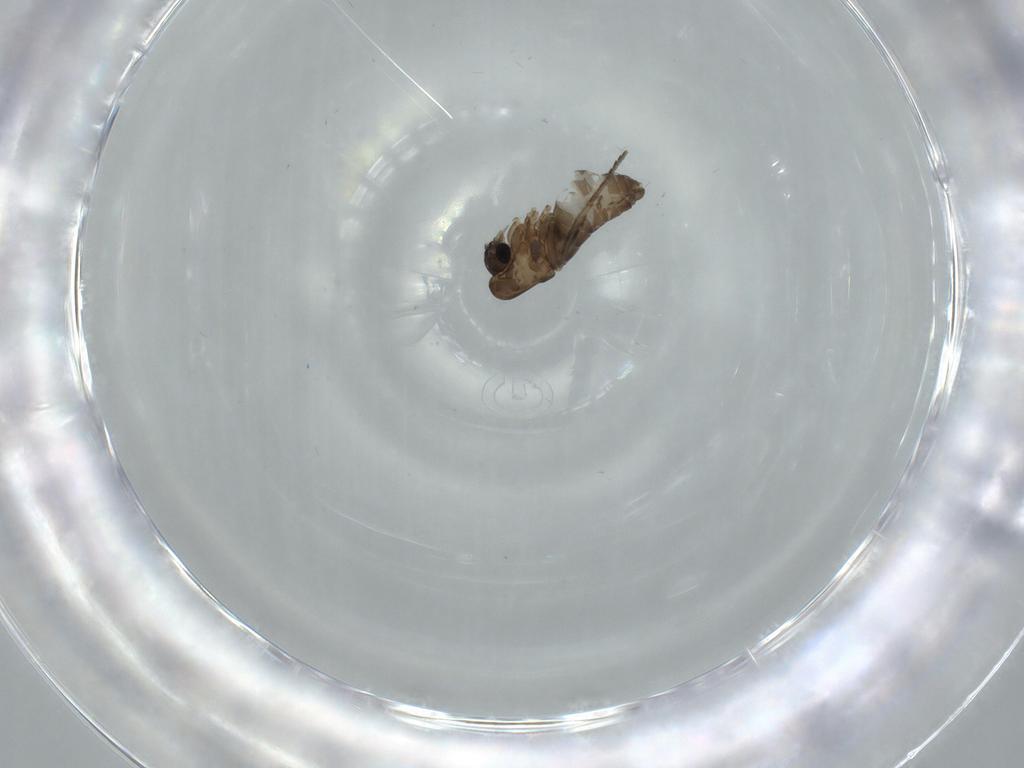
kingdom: Animalia
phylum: Arthropoda
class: Insecta
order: Diptera
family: Psychodidae
